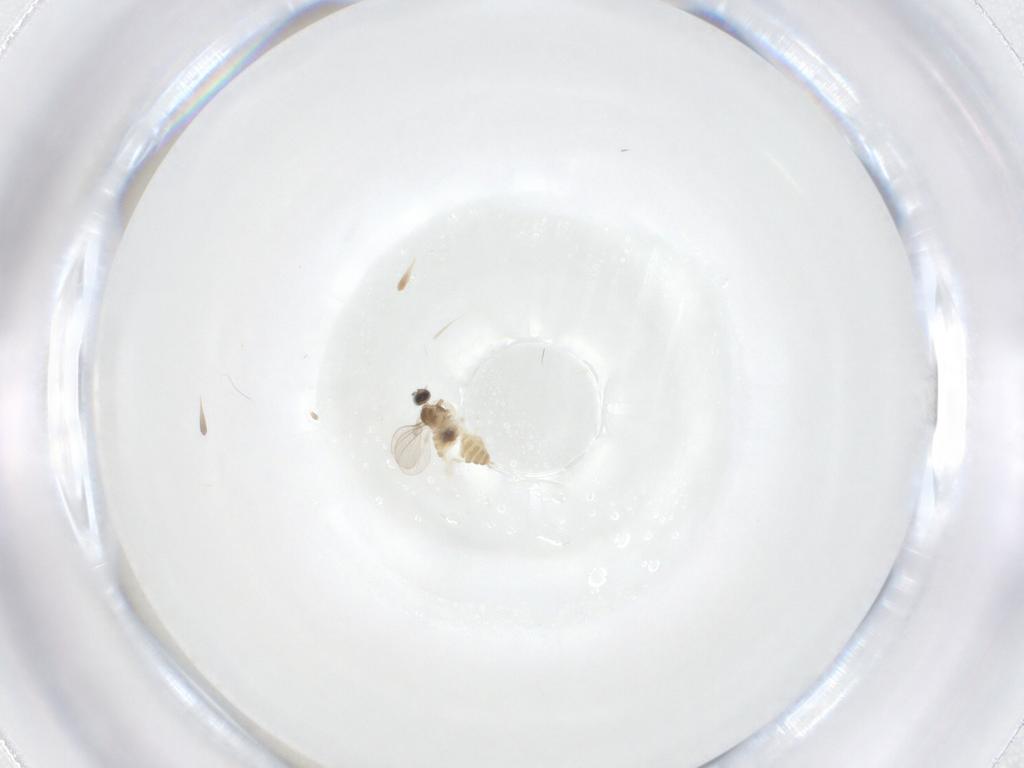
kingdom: Animalia
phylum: Arthropoda
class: Insecta
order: Diptera
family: Cecidomyiidae
